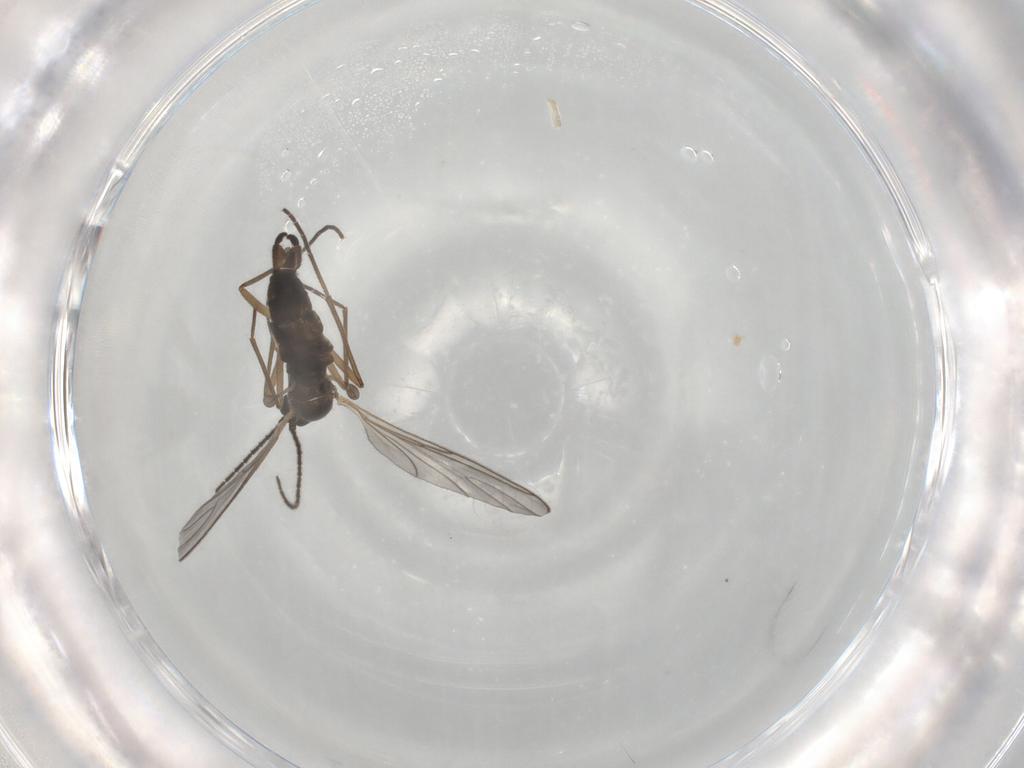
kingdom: Animalia
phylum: Arthropoda
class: Insecta
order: Diptera
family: Sciaridae
